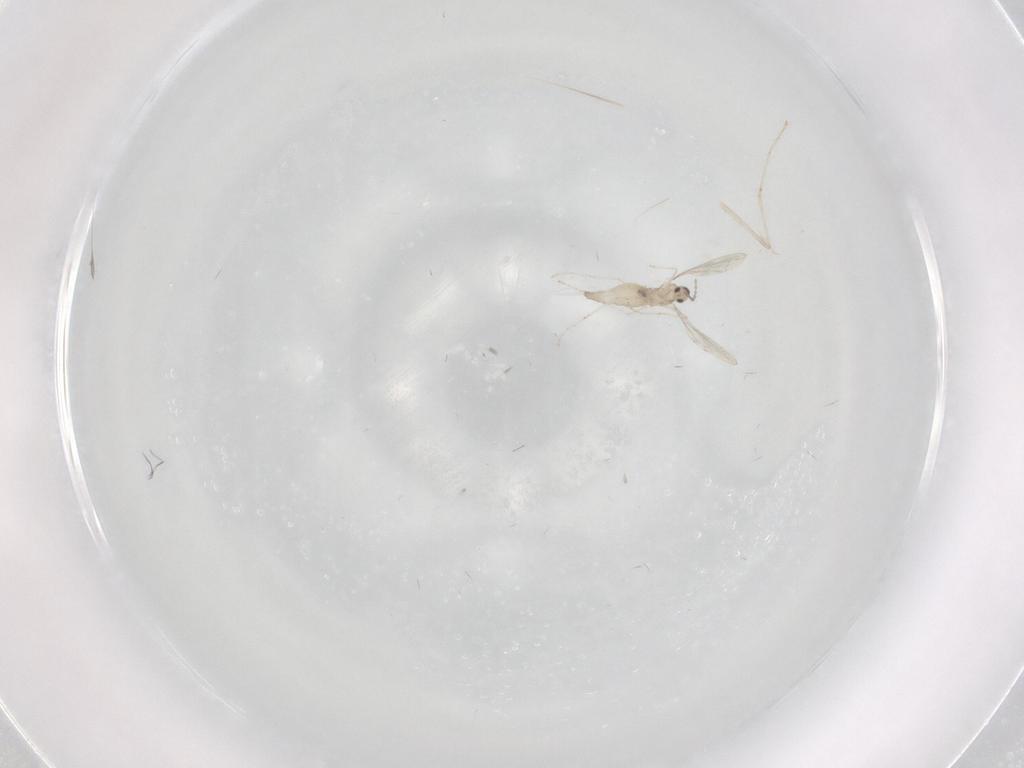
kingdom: Animalia
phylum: Arthropoda
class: Insecta
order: Diptera
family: Cecidomyiidae
